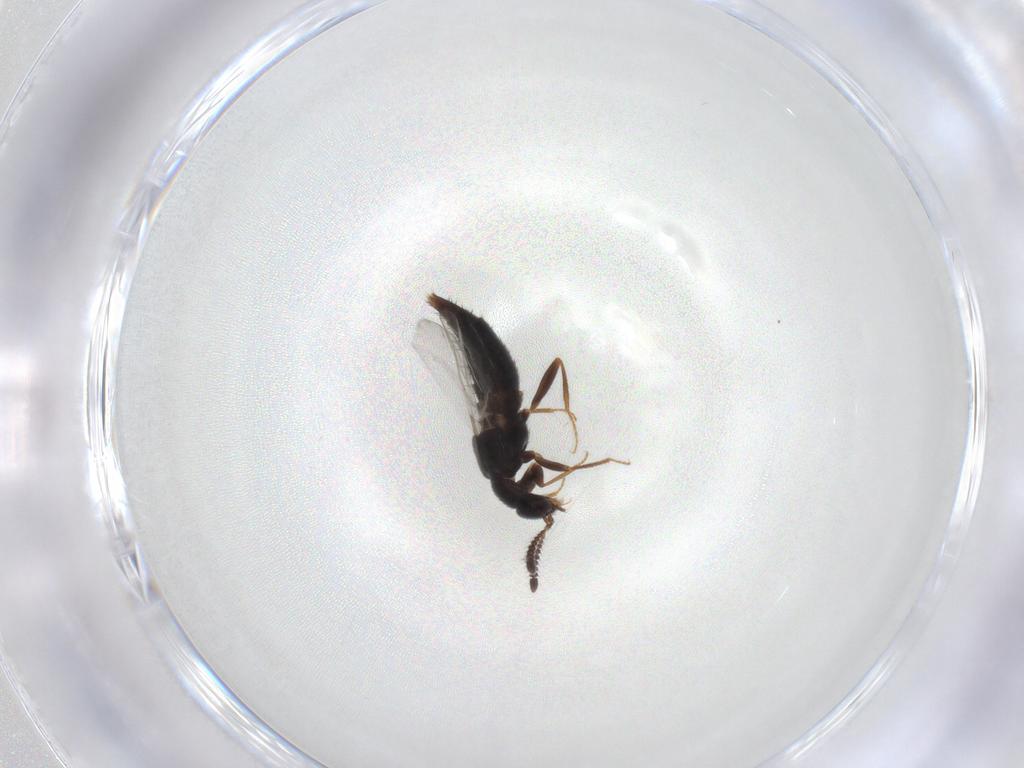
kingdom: Animalia
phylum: Arthropoda
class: Insecta
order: Coleoptera
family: Staphylinidae
